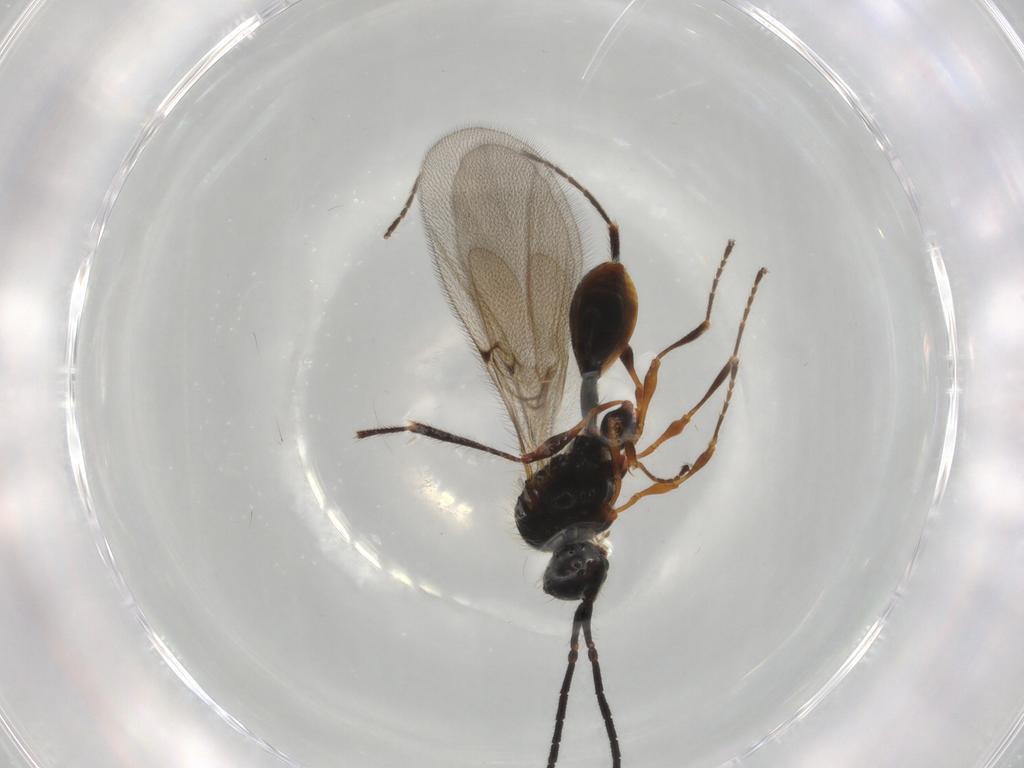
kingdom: Animalia
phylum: Arthropoda
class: Insecta
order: Hymenoptera
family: Diapriidae
